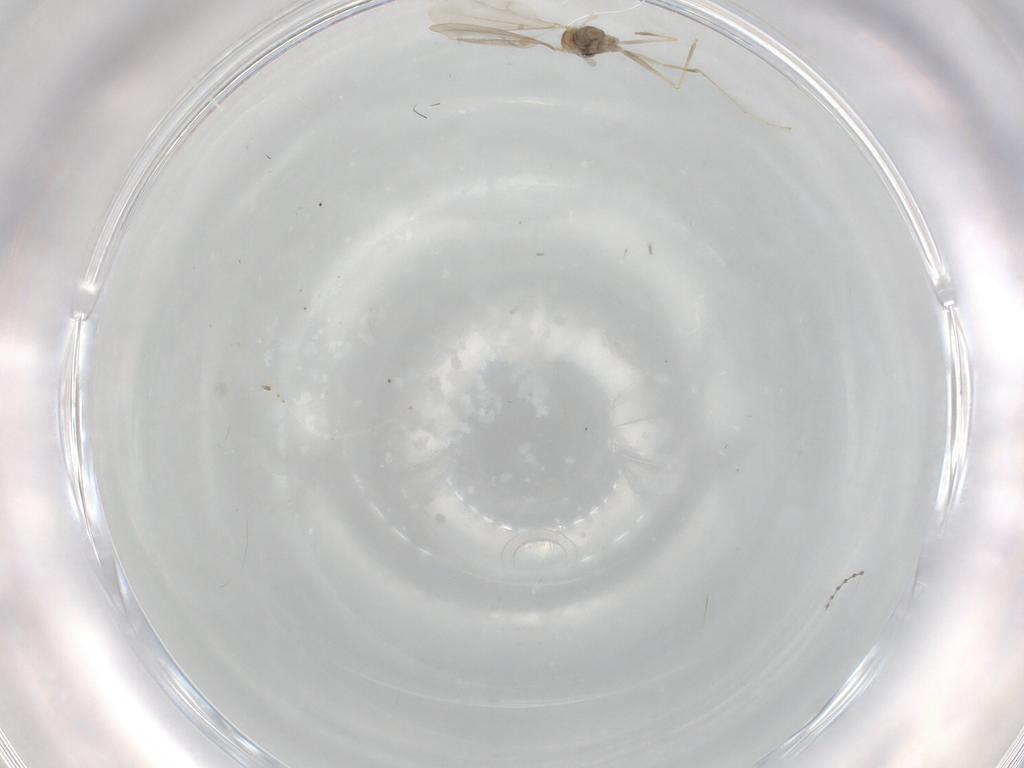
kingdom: Animalia
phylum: Arthropoda
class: Insecta
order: Diptera
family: Cecidomyiidae
